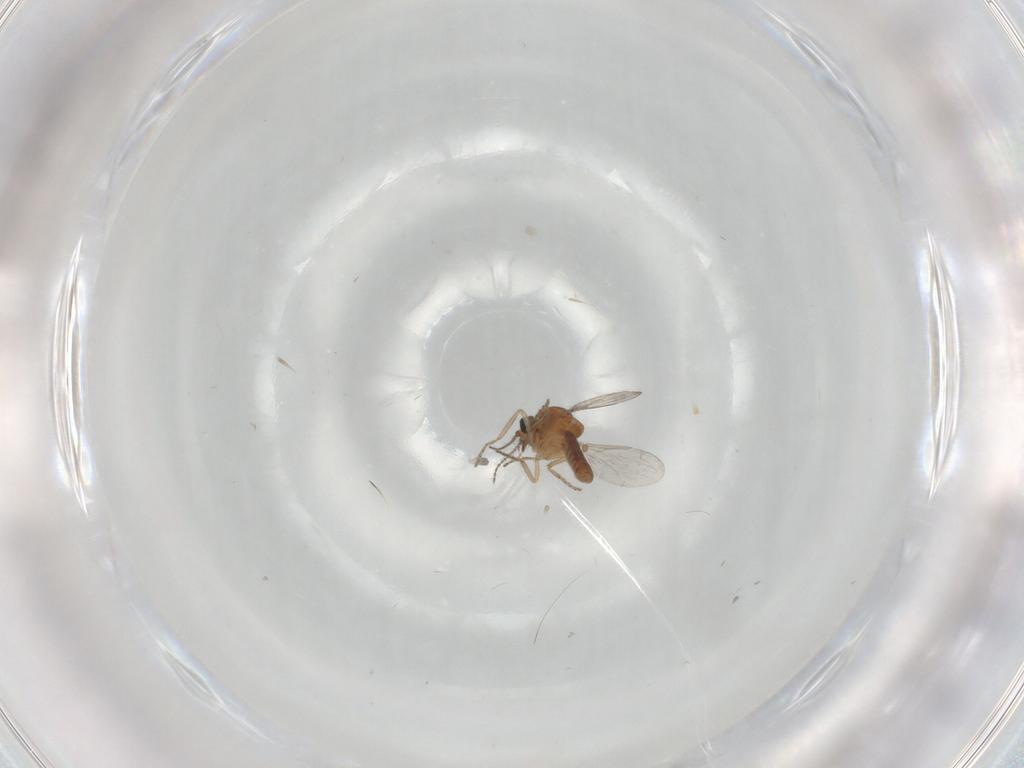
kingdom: Animalia
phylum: Arthropoda
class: Insecta
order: Diptera
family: Ceratopogonidae
